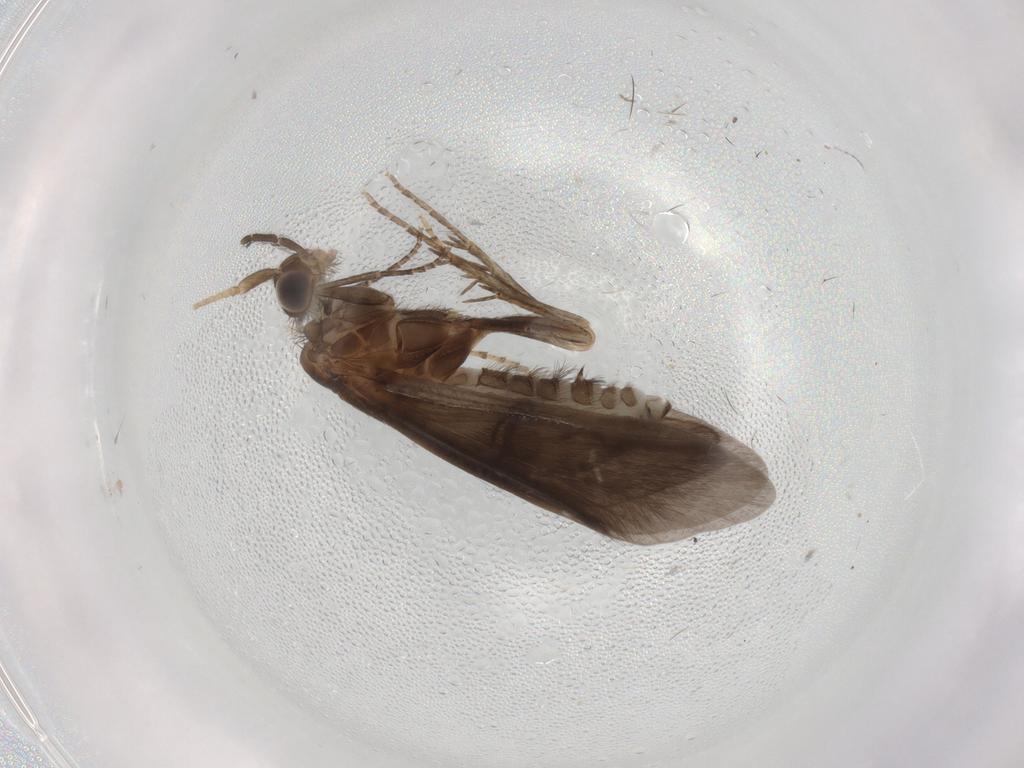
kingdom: Animalia
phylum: Arthropoda
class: Insecta
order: Trichoptera
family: Helicopsychidae
